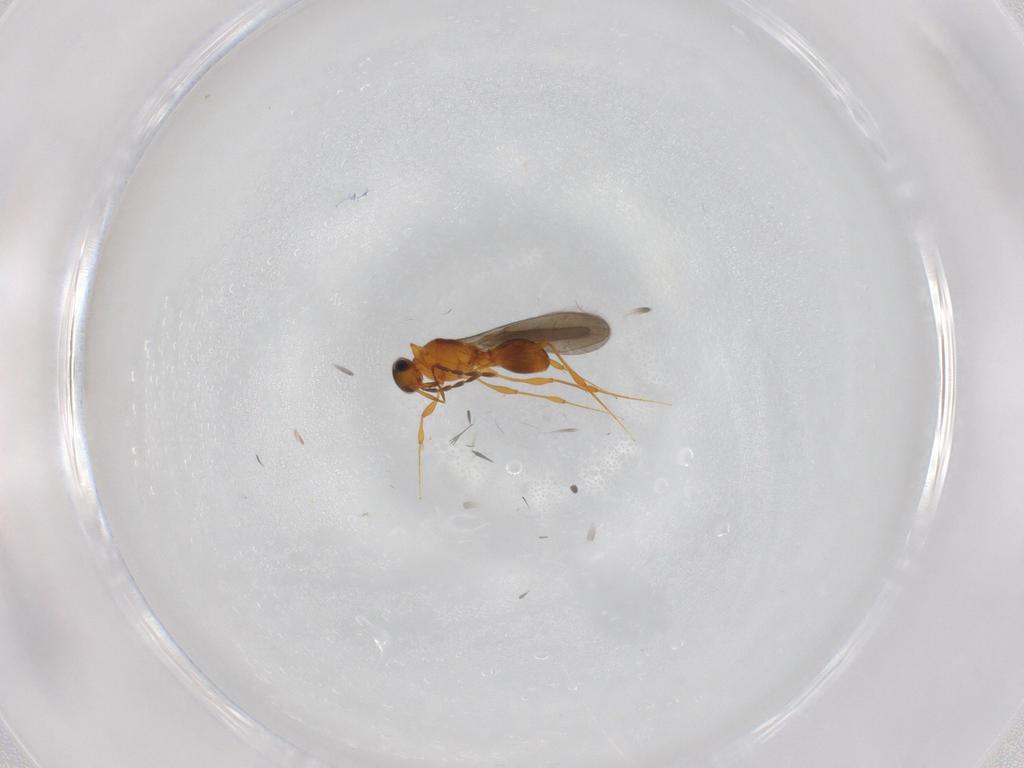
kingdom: Animalia
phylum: Arthropoda
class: Insecta
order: Hymenoptera
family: Platygastridae
